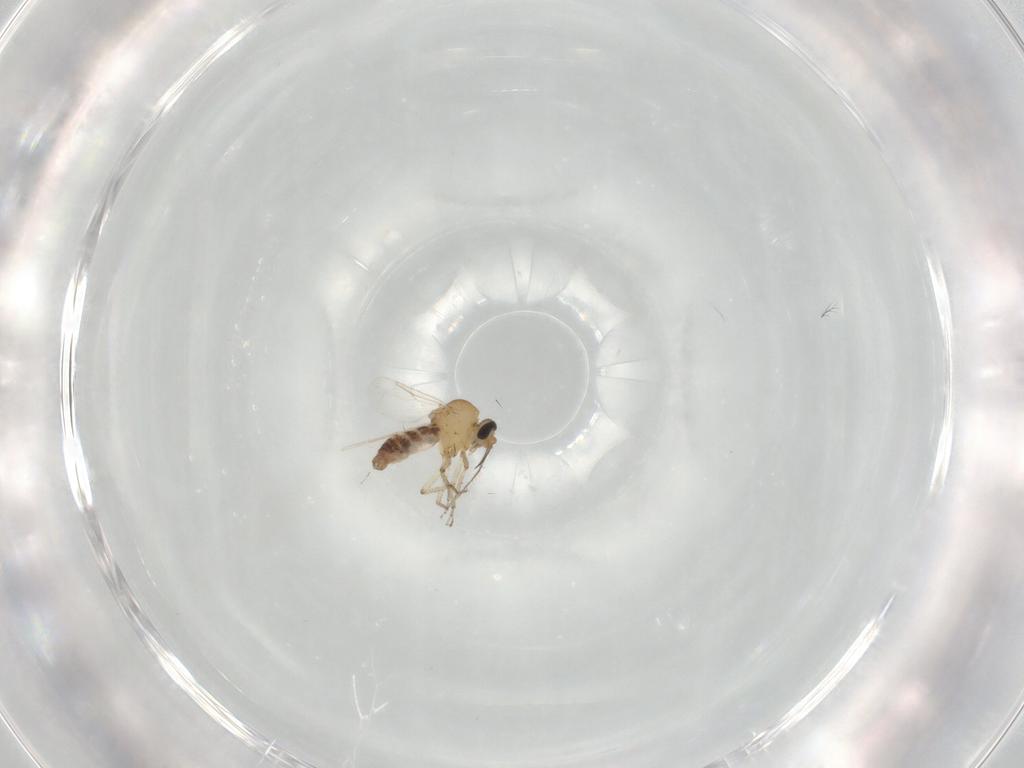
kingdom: Animalia
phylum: Arthropoda
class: Insecta
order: Diptera
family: Ceratopogonidae
